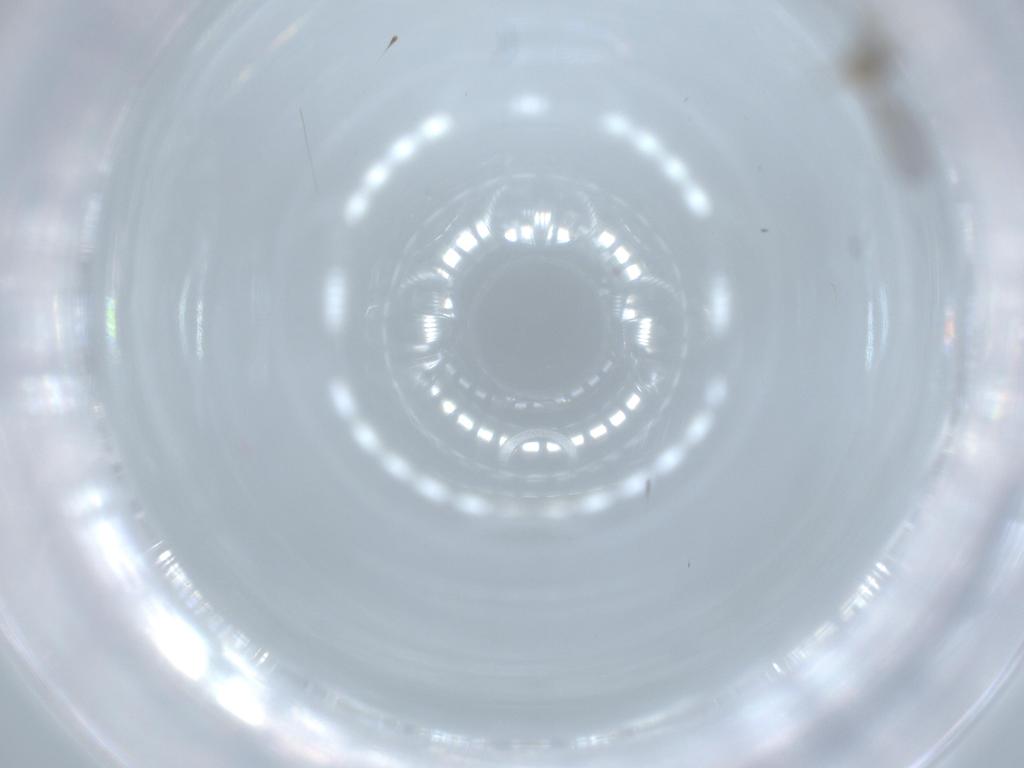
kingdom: Animalia
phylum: Arthropoda
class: Insecta
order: Diptera
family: Cecidomyiidae
